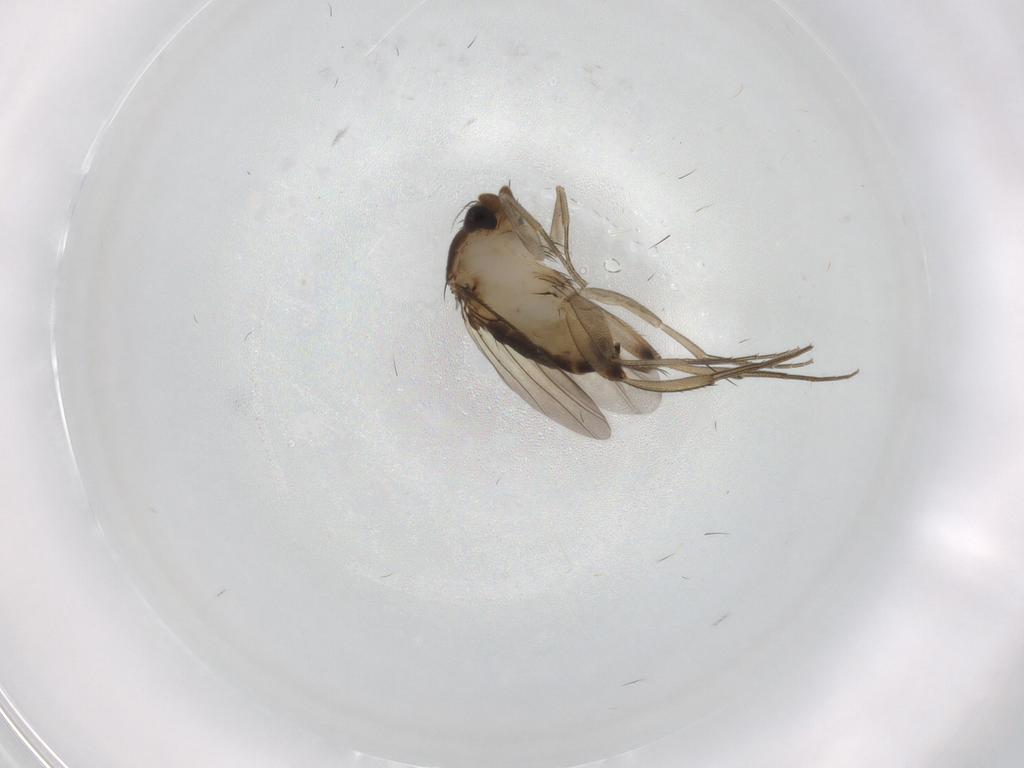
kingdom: Animalia
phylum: Arthropoda
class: Insecta
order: Diptera
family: Phoridae
